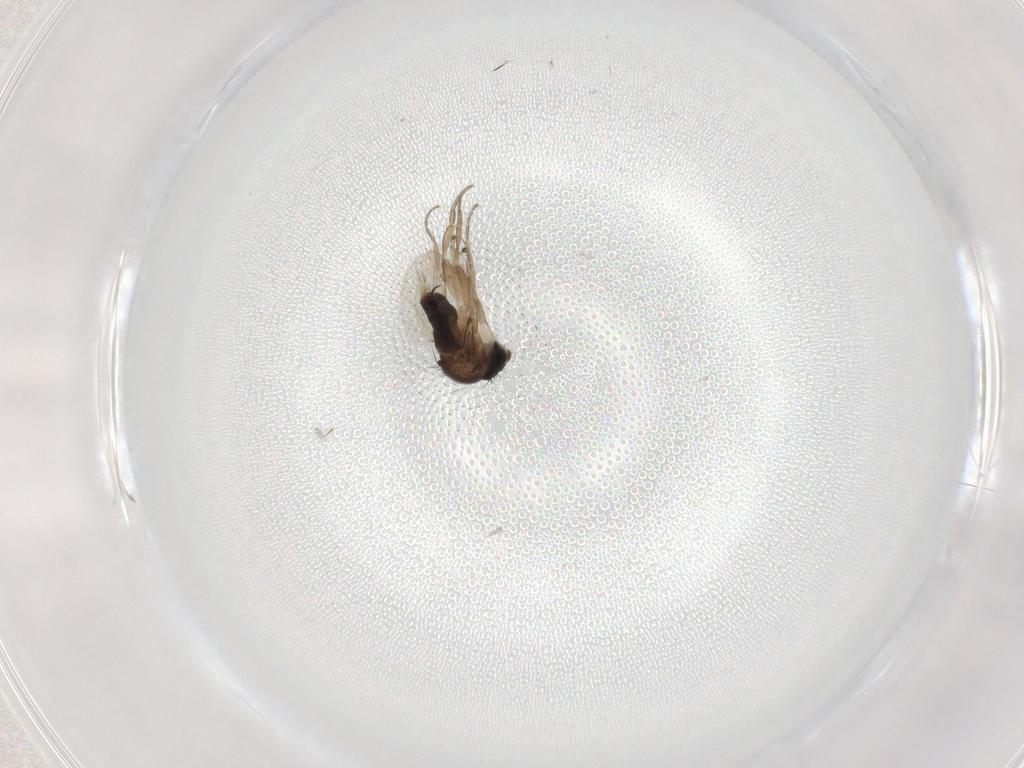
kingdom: Animalia
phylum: Arthropoda
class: Insecta
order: Diptera
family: Phoridae
